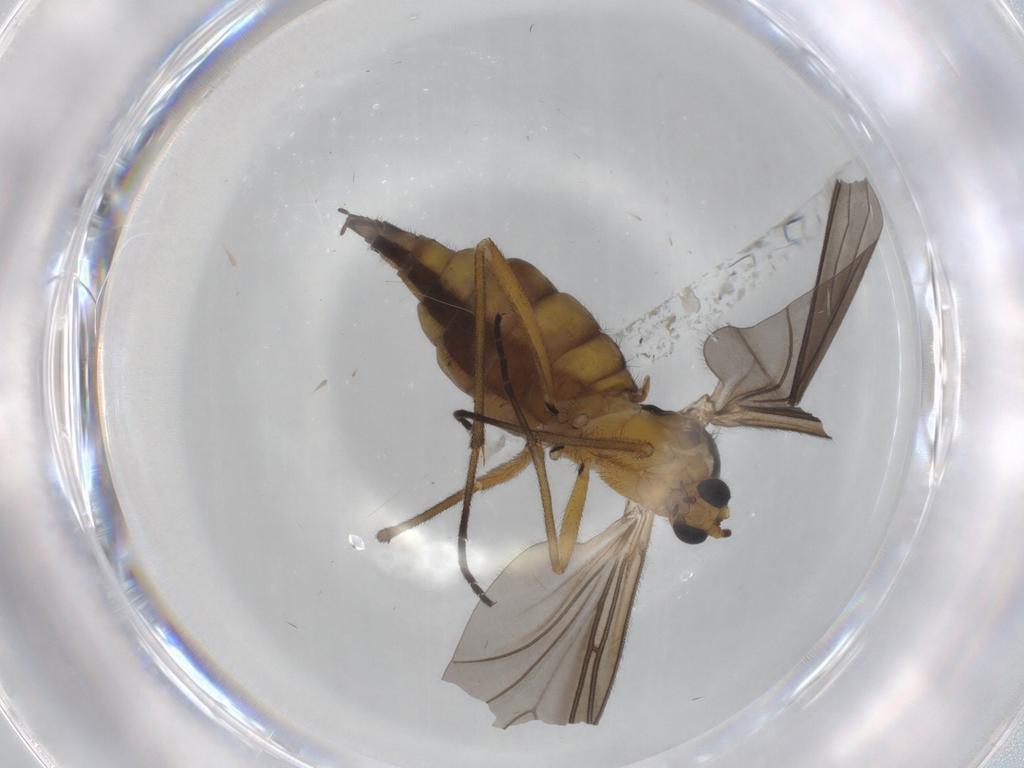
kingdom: Animalia
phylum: Arthropoda
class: Insecta
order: Diptera
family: Sciaridae
